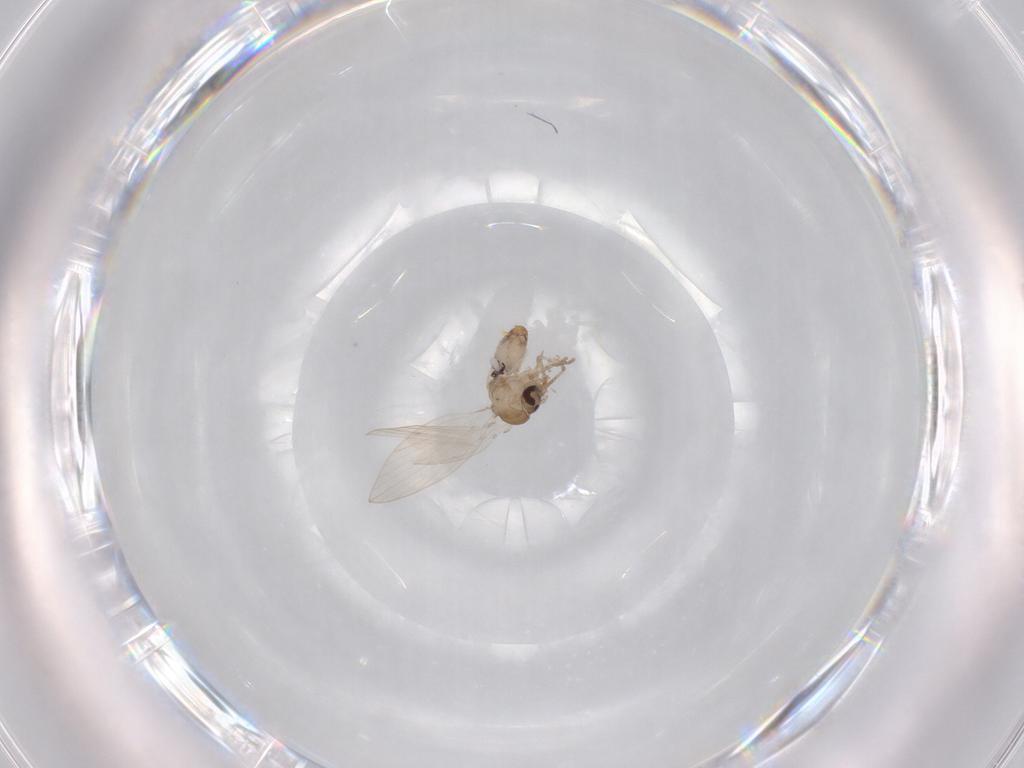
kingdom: Animalia
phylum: Arthropoda
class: Insecta
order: Diptera
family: Psychodidae
